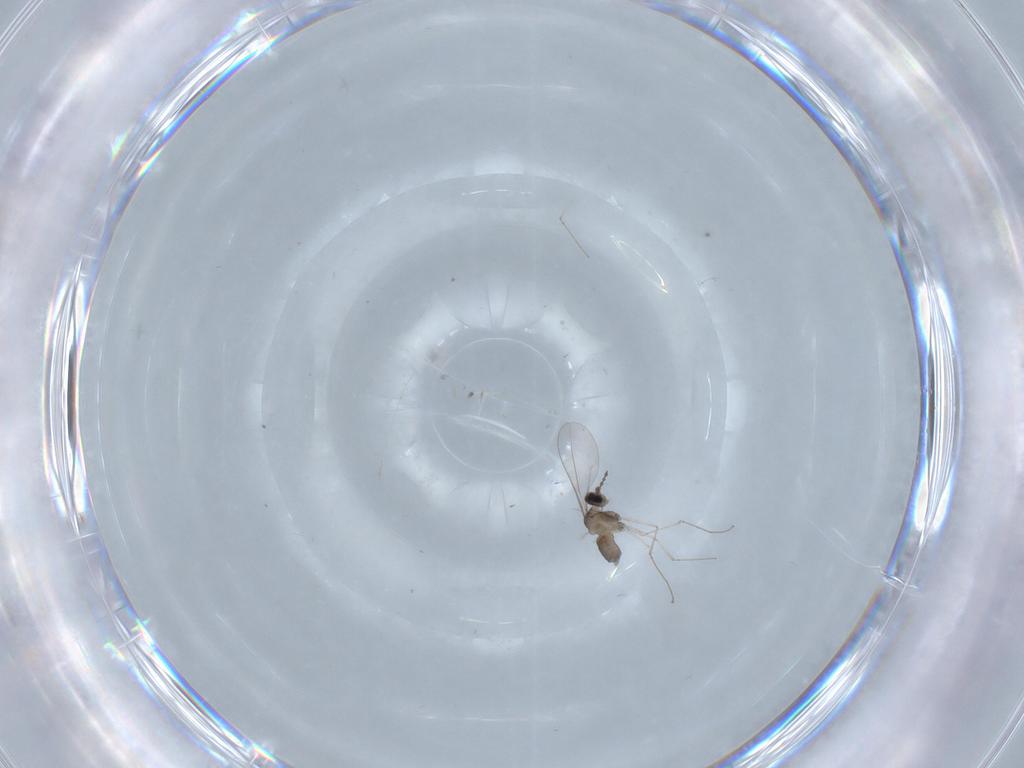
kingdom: Animalia
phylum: Arthropoda
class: Insecta
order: Diptera
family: Cecidomyiidae
